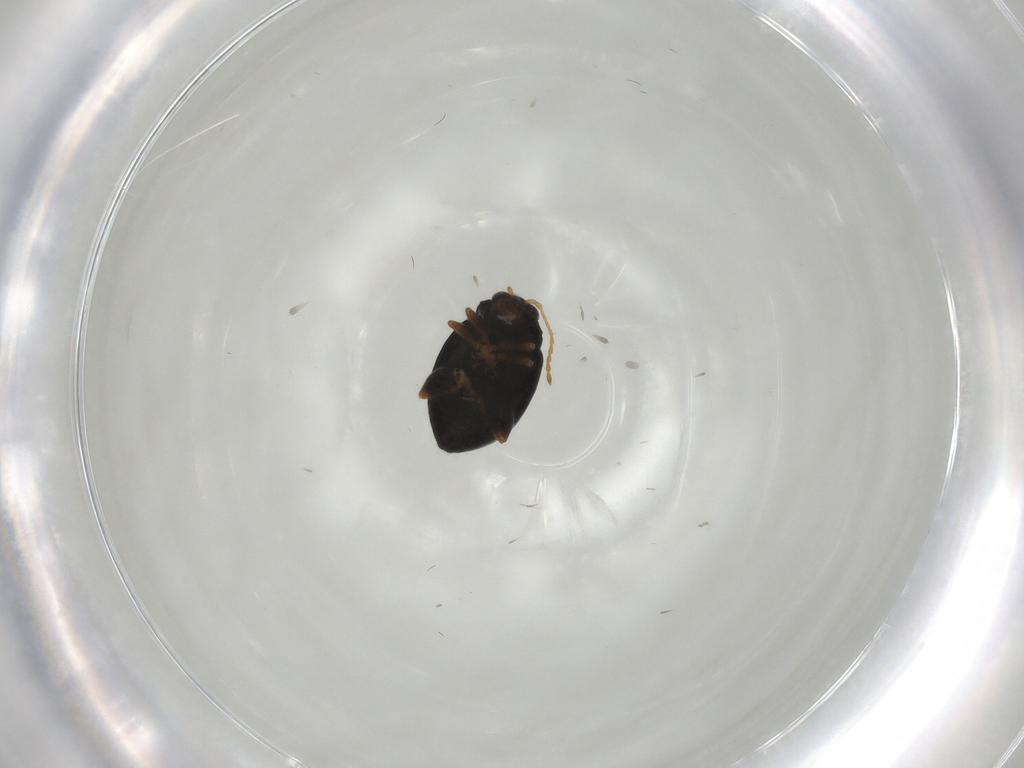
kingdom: Animalia
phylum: Arthropoda
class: Insecta
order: Coleoptera
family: Chrysomelidae
